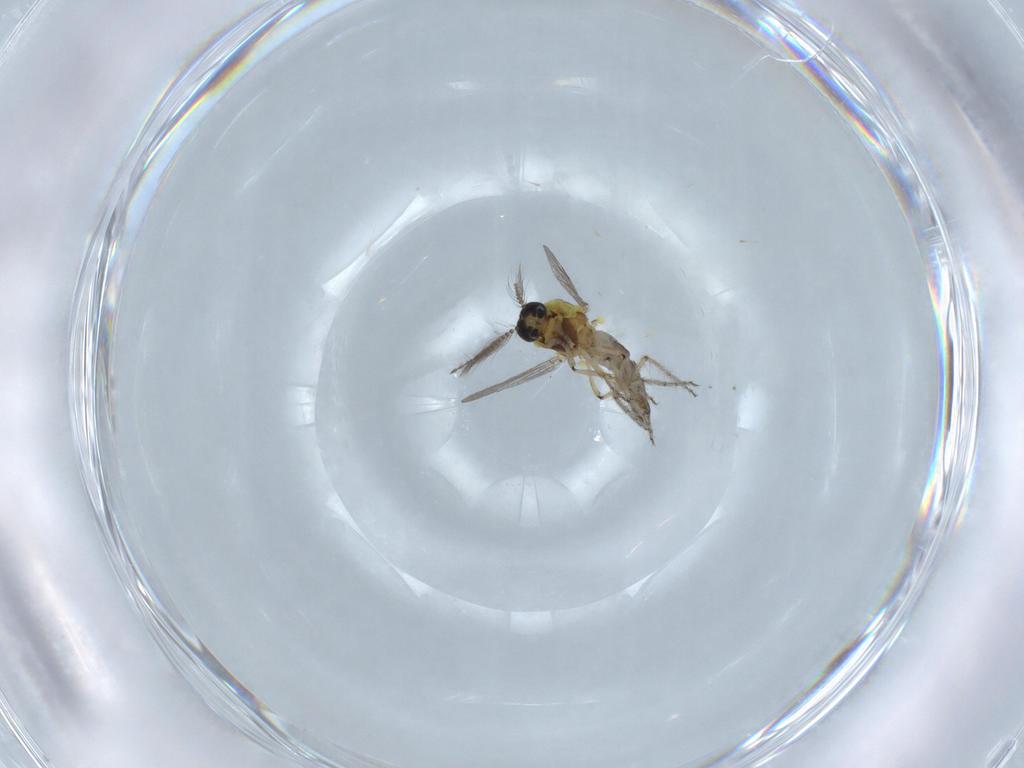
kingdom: Animalia
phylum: Arthropoda
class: Insecta
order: Diptera
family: Ceratopogonidae
